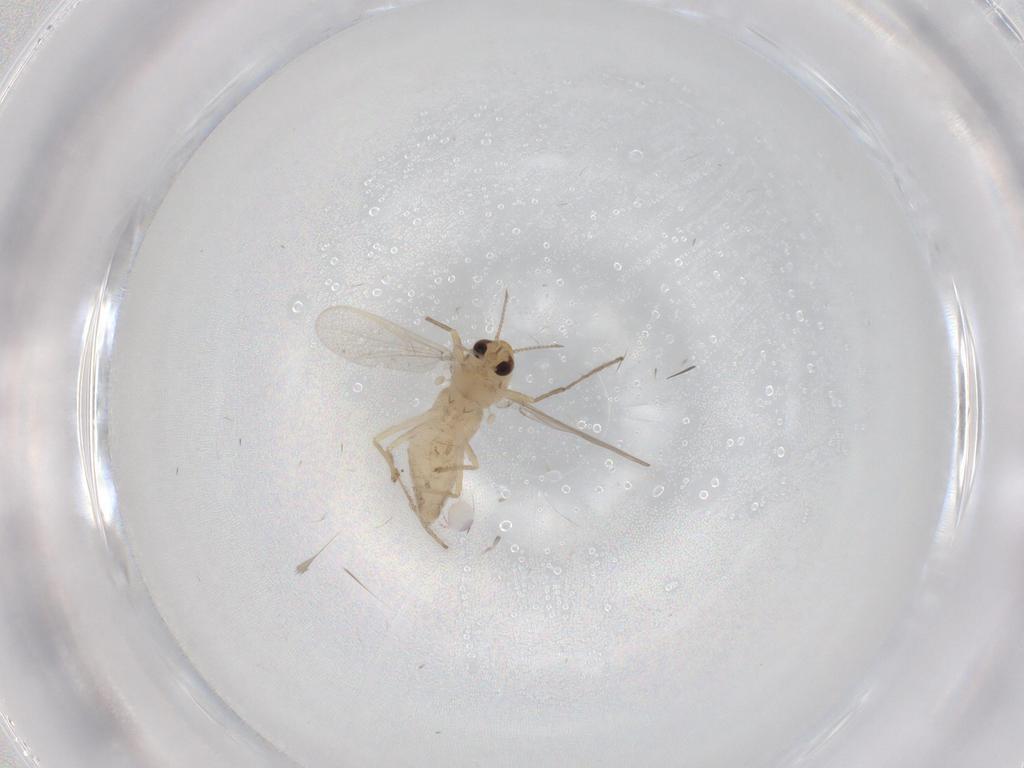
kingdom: Animalia
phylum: Arthropoda
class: Insecta
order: Diptera
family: Chironomidae
